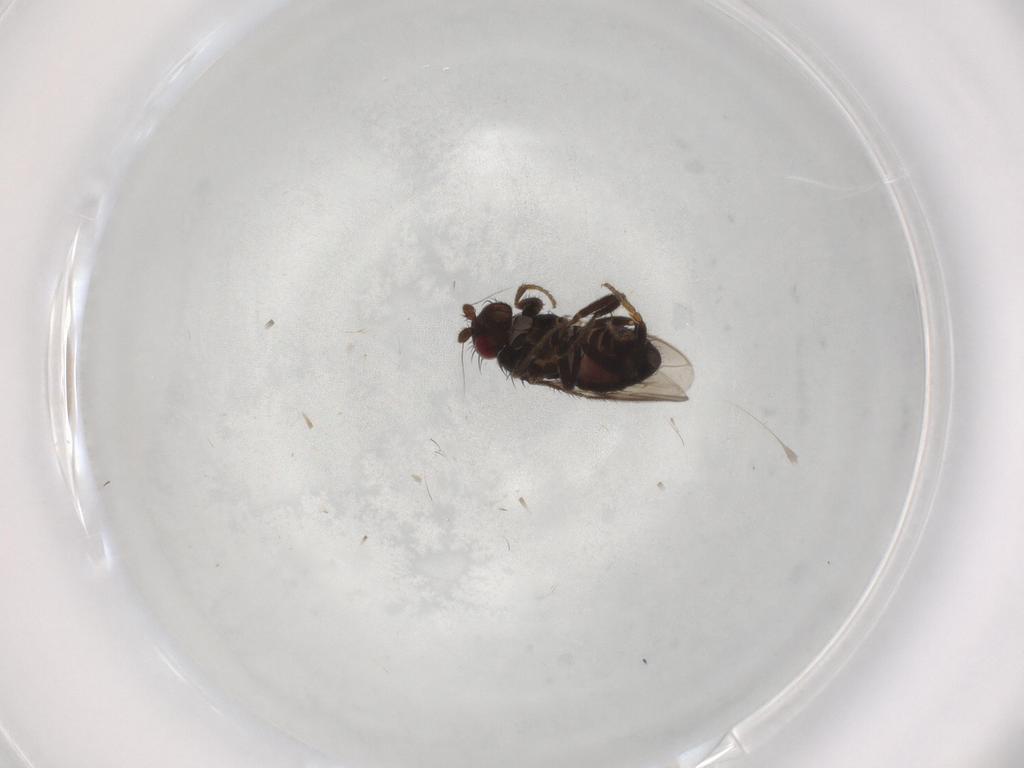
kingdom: Animalia
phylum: Arthropoda
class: Insecta
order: Diptera
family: Sphaeroceridae
